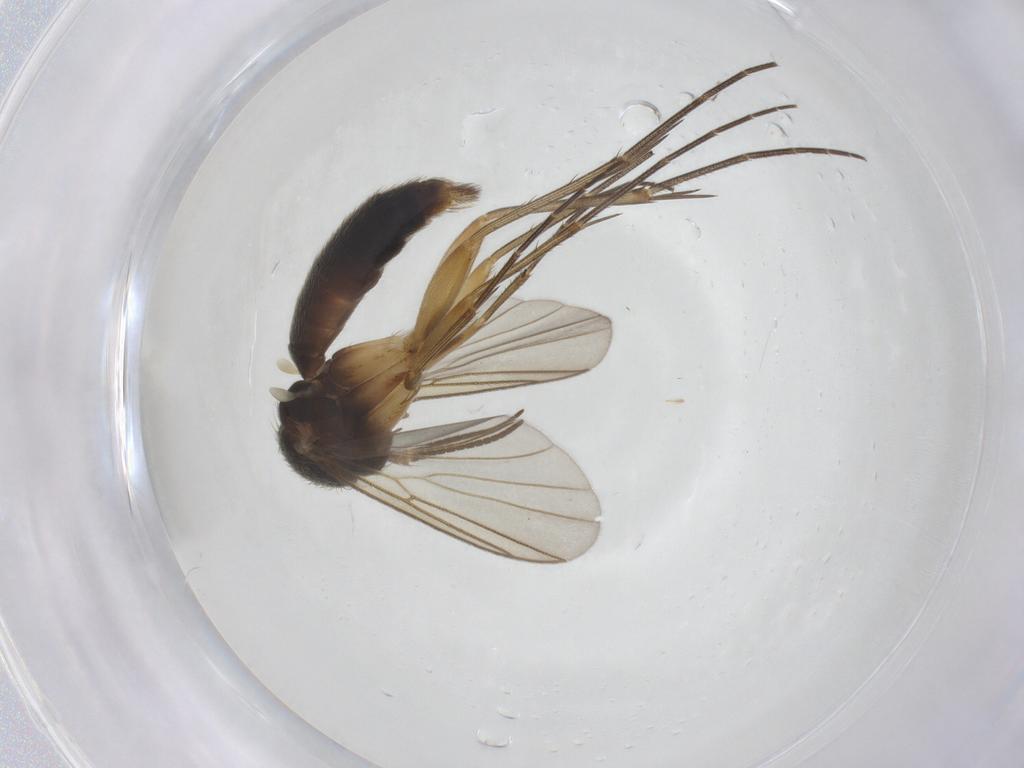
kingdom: Animalia
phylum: Arthropoda
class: Insecta
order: Diptera
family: Ceratopogonidae
